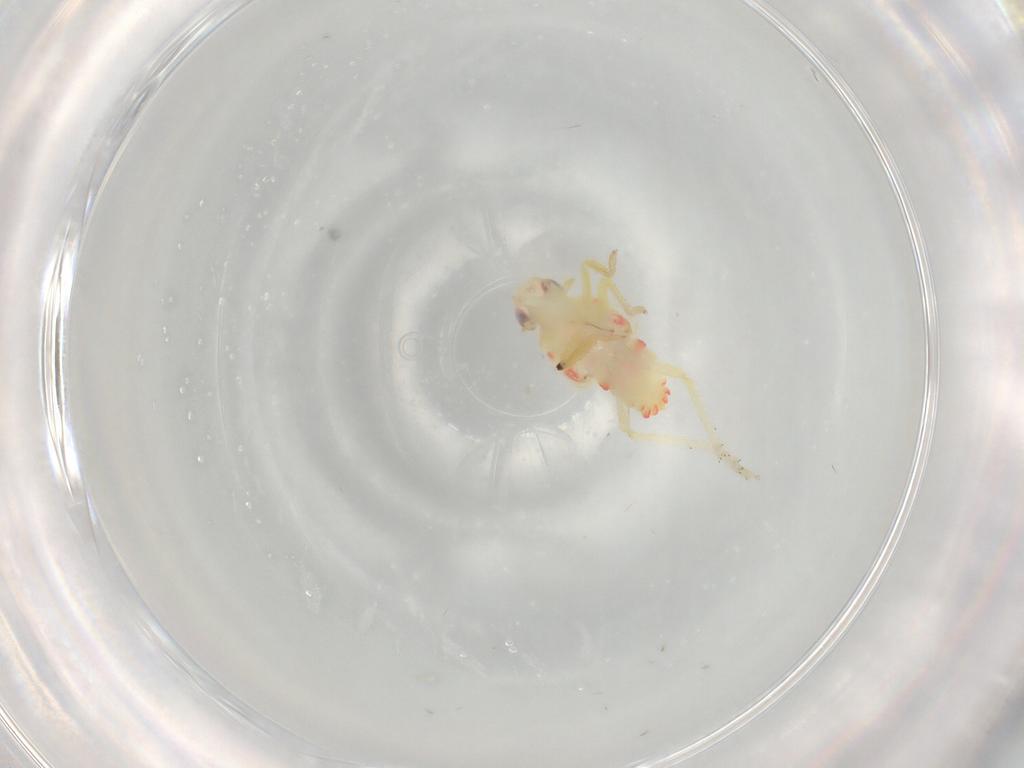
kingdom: Animalia
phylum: Arthropoda
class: Insecta
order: Hemiptera
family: Tropiduchidae
